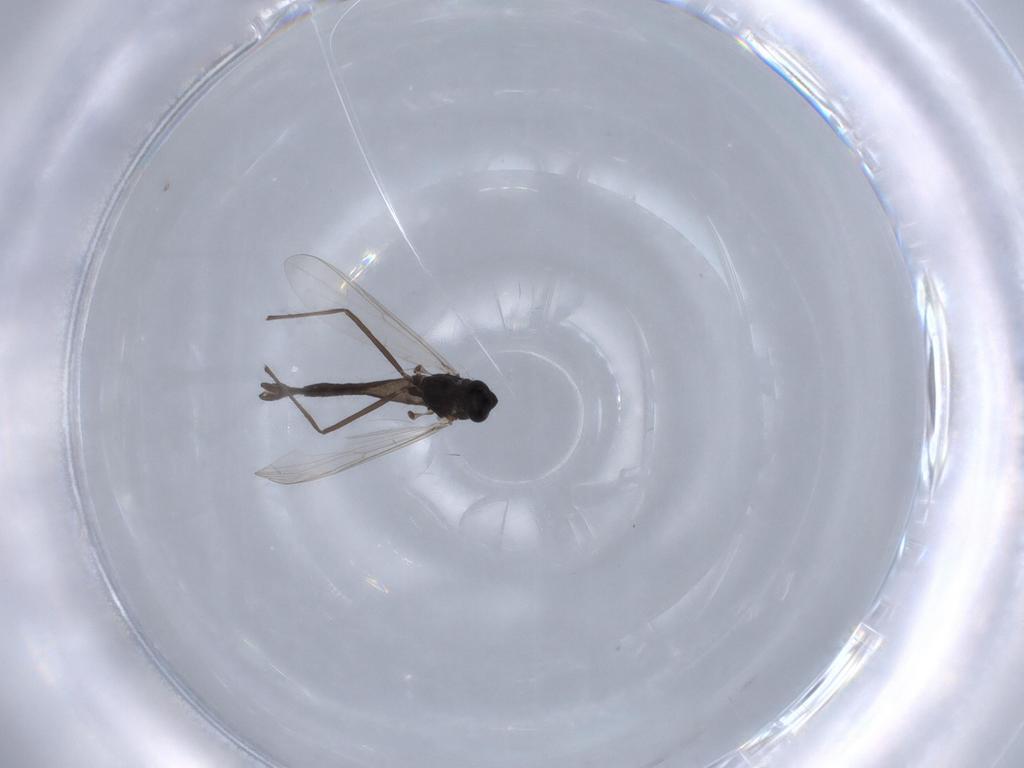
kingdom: Animalia
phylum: Arthropoda
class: Insecta
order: Diptera
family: Chironomidae
